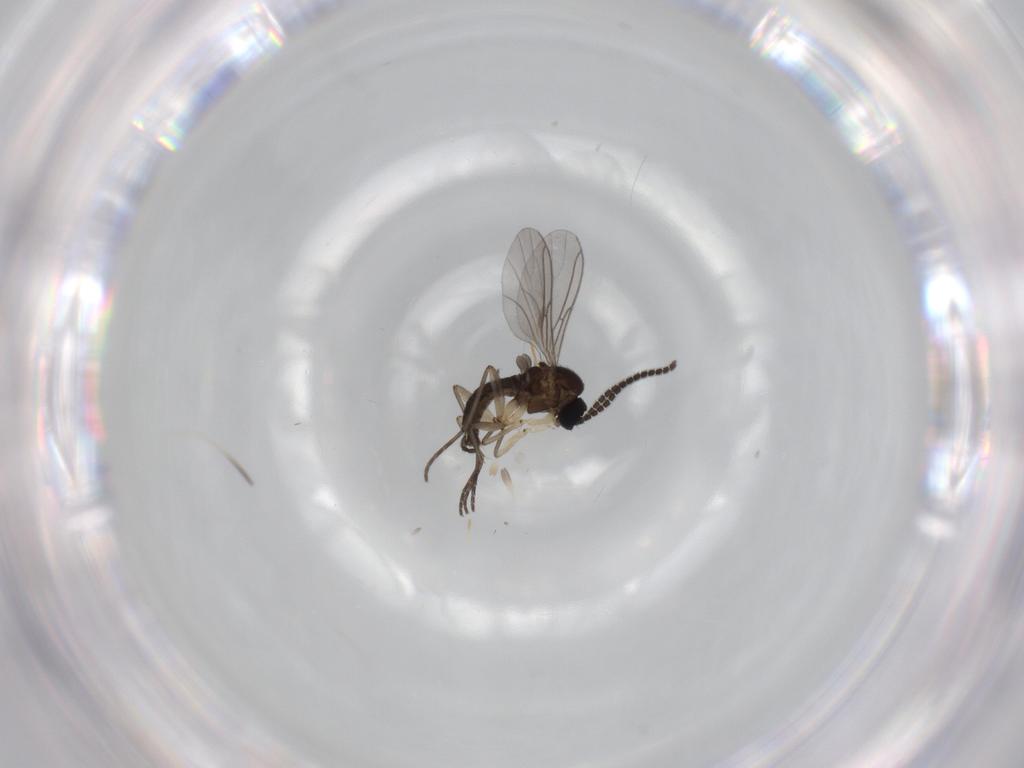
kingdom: Animalia
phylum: Arthropoda
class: Insecta
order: Diptera
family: Sciaridae
